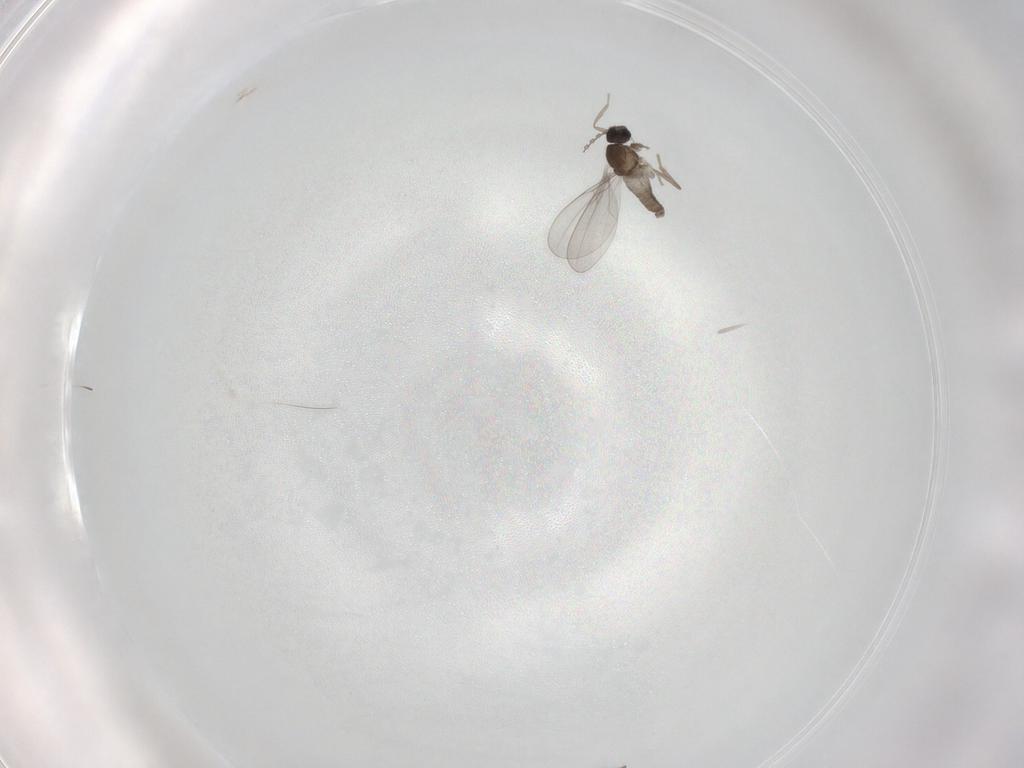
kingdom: Animalia
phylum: Arthropoda
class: Insecta
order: Diptera
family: Cecidomyiidae
